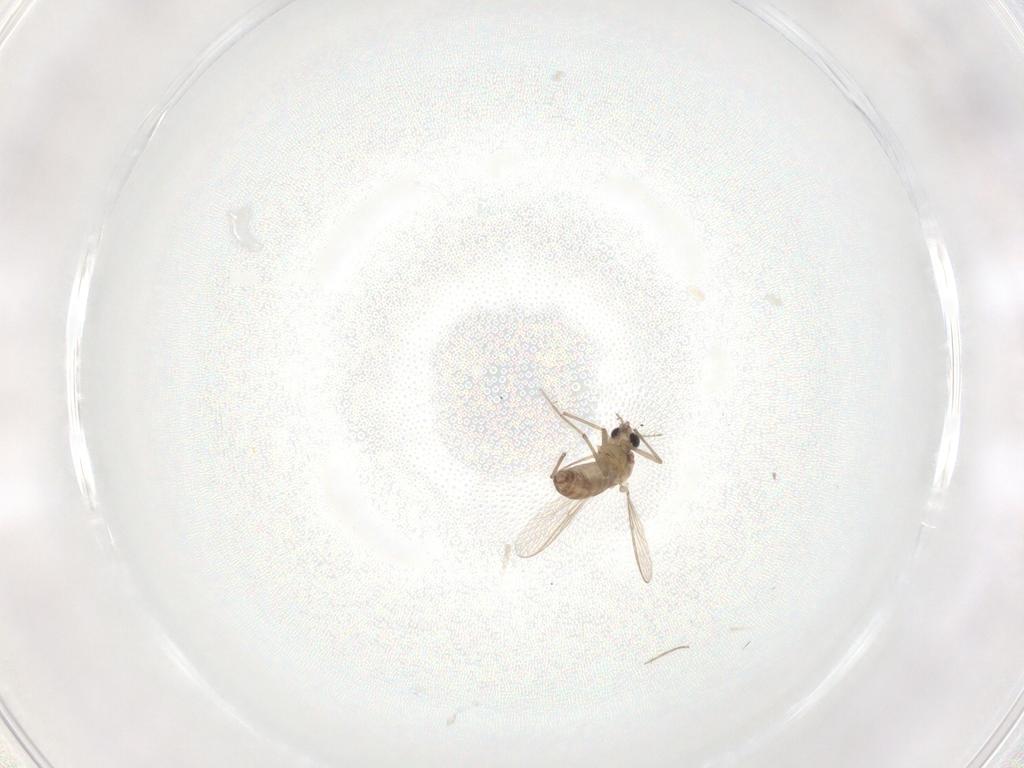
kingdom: Animalia
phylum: Arthropoda
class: Insecta
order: Diptera
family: Chironomidae
